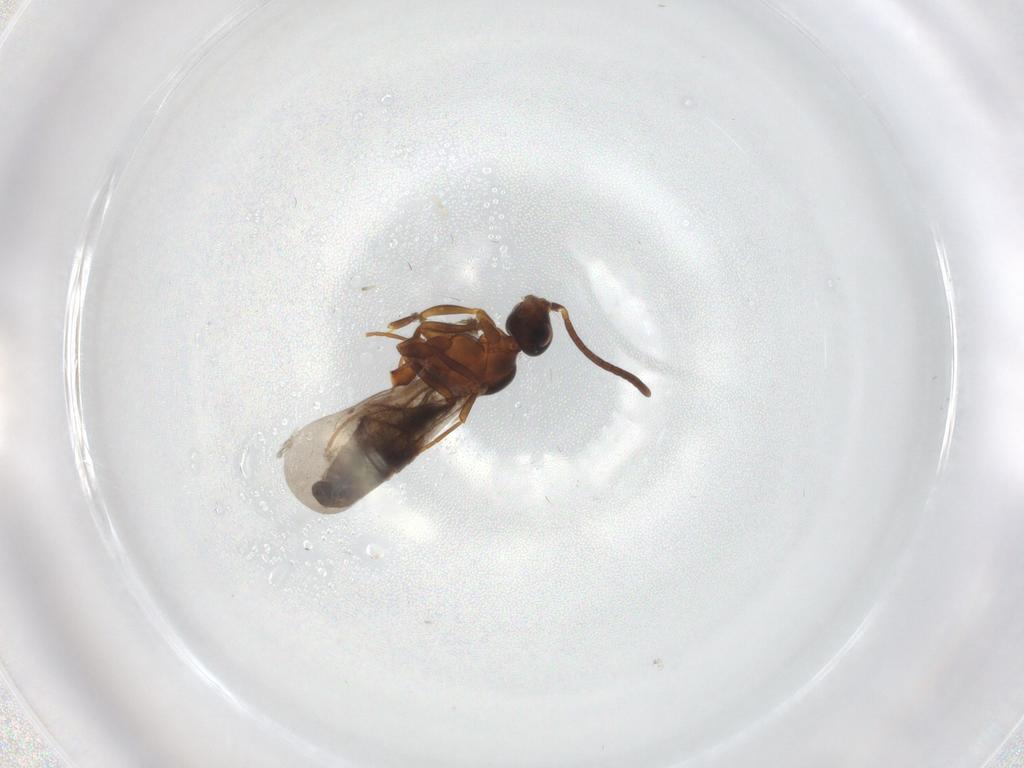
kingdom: Animalia
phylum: Arthropoda
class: Insecta
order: Hymenoptera
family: Formicidae
